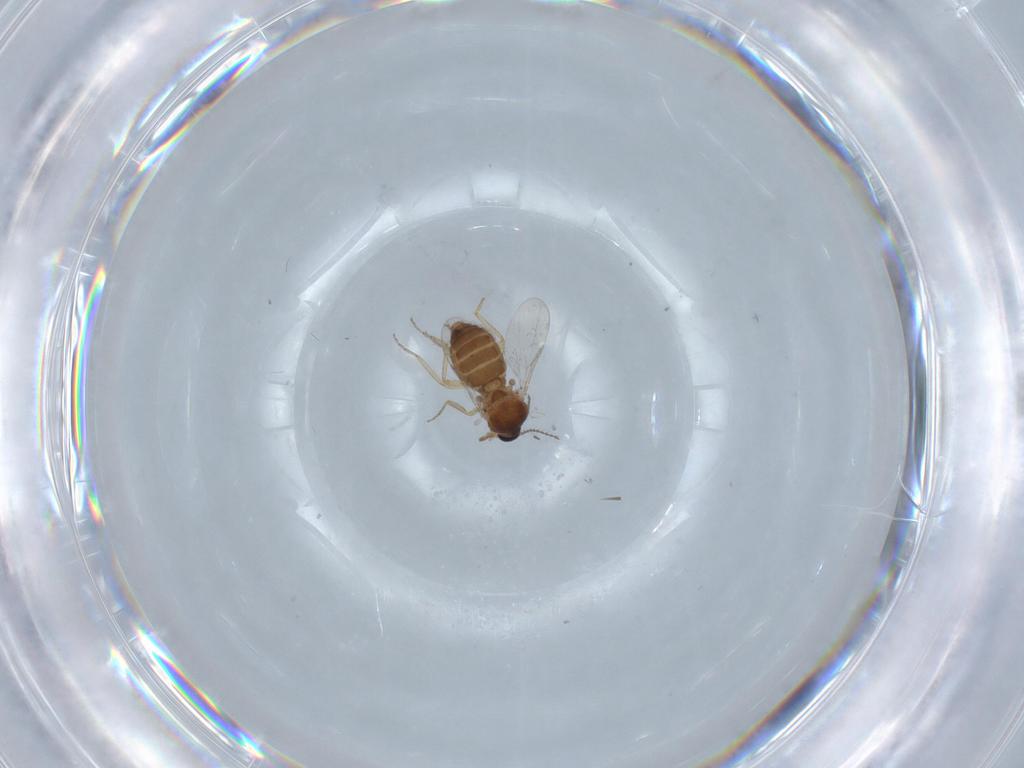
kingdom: Animalia
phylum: Arthropoda
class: Insecta
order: Diptera
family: Ceratopogonidae
